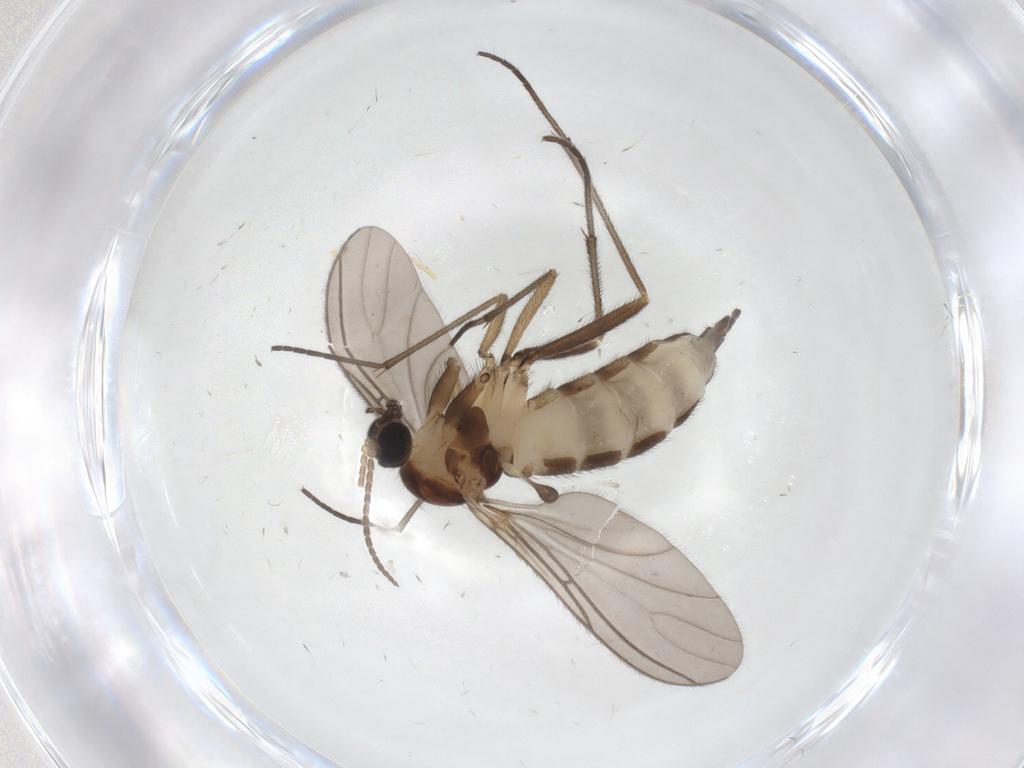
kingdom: Animalia
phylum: Arthropoda
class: Insecta
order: Diptera
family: Sciaridae
